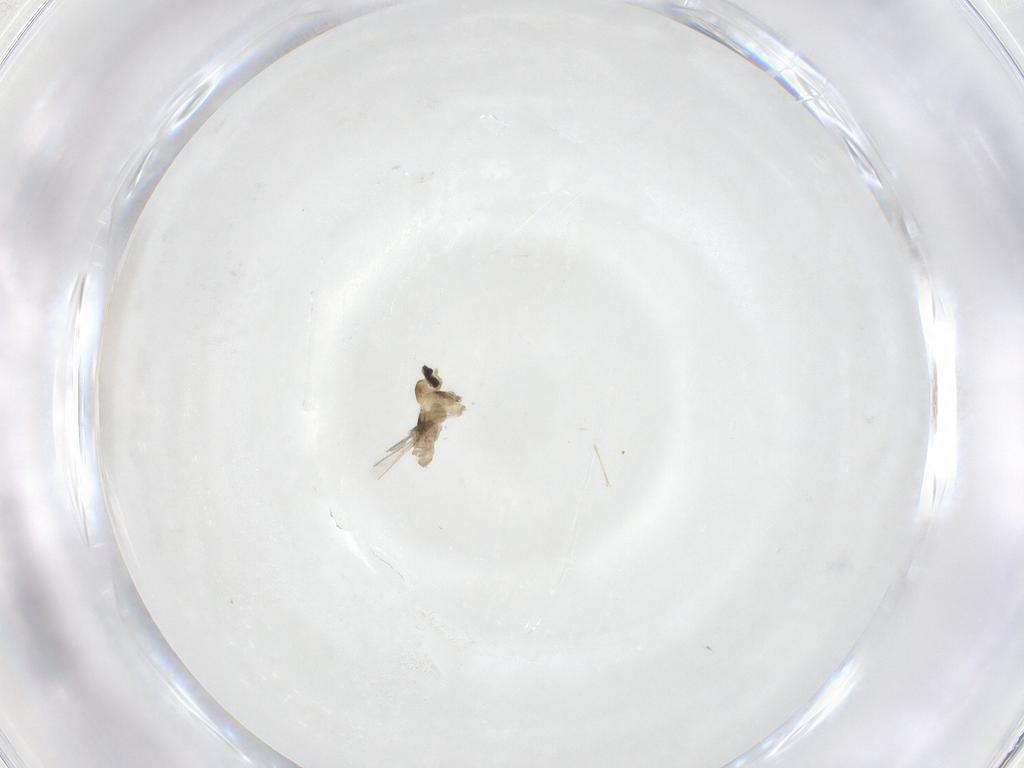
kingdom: Animalia
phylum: Arthropoda
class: Insecta
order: Diptera
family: Cecidomyiidae
